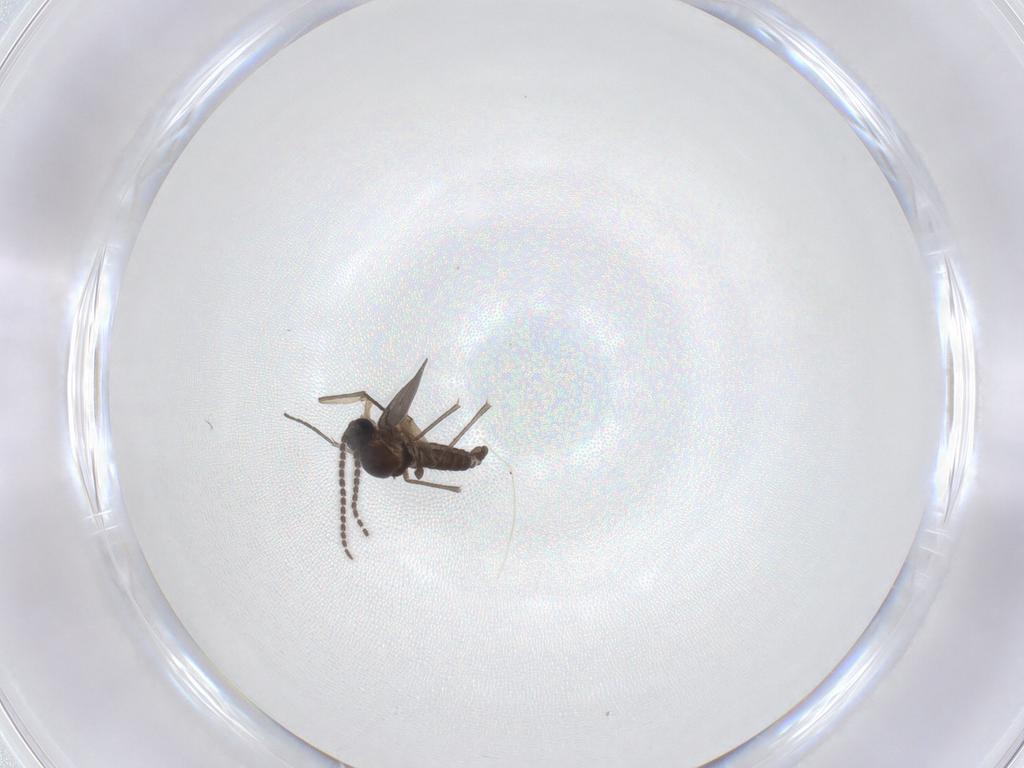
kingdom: Animalia
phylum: Arthropoda
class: Insecta
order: Diptera
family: Sciaridae
